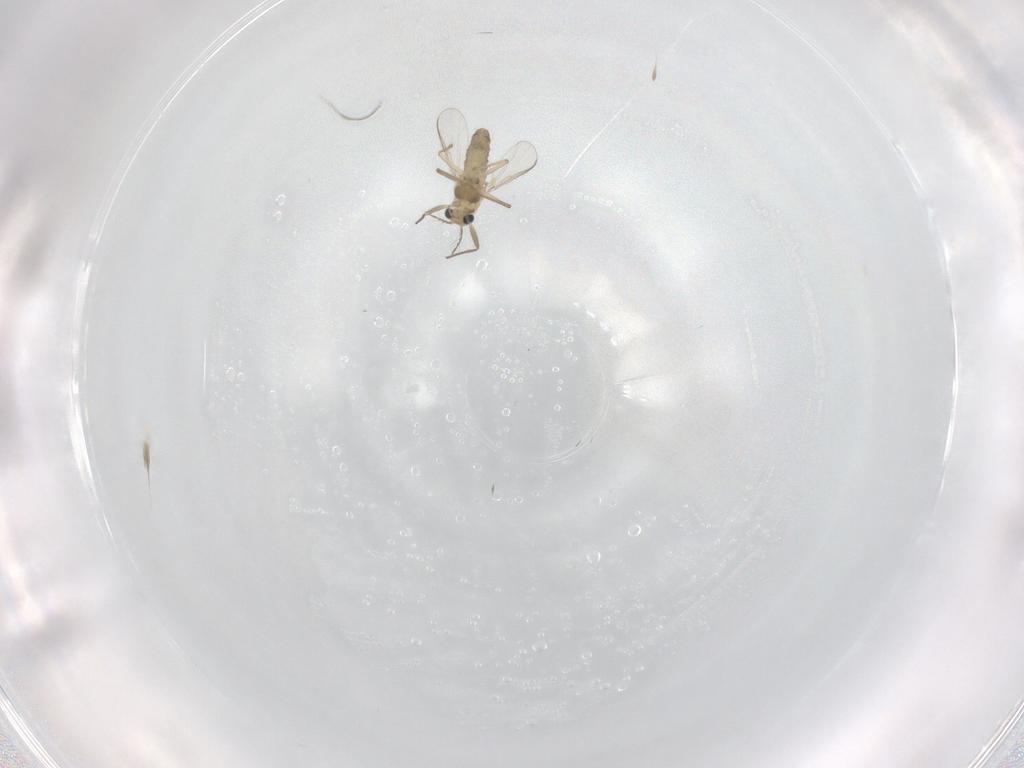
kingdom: Animalia
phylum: Arthropoda
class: Insecta
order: Diptera
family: Chironomidae
